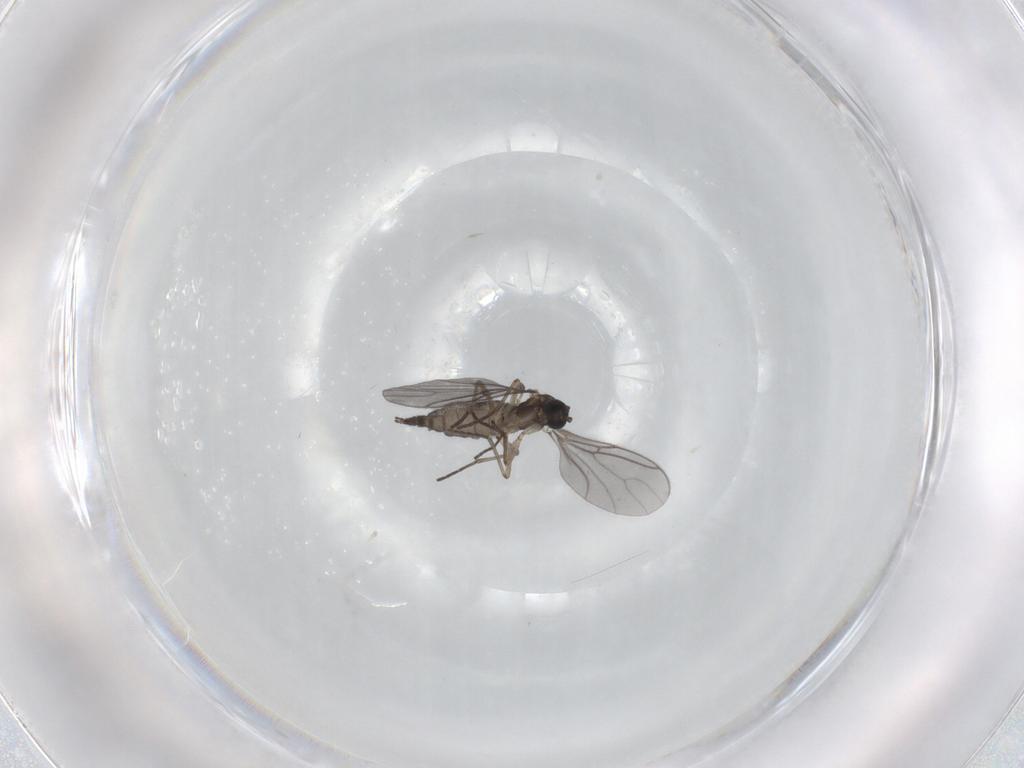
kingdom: Animalia
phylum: Arthropoda
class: Insecta
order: Diptera
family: Sciaridae
